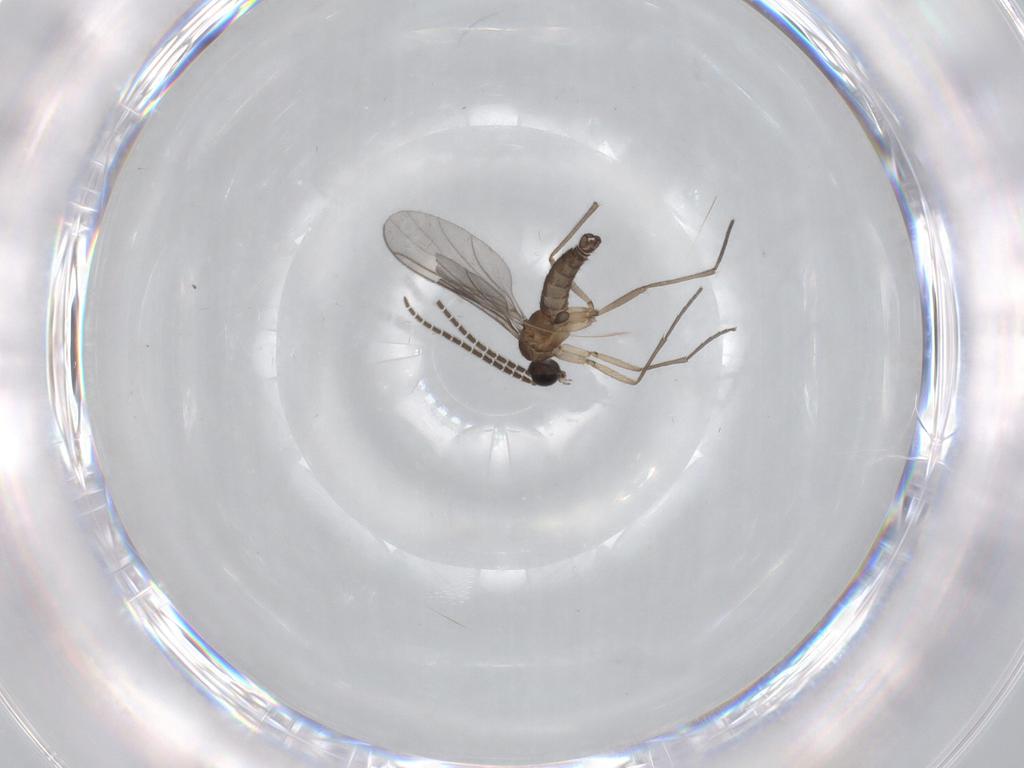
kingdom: Animalia
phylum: Arthropoda
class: Insecta
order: Diptera
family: Sciaridae
